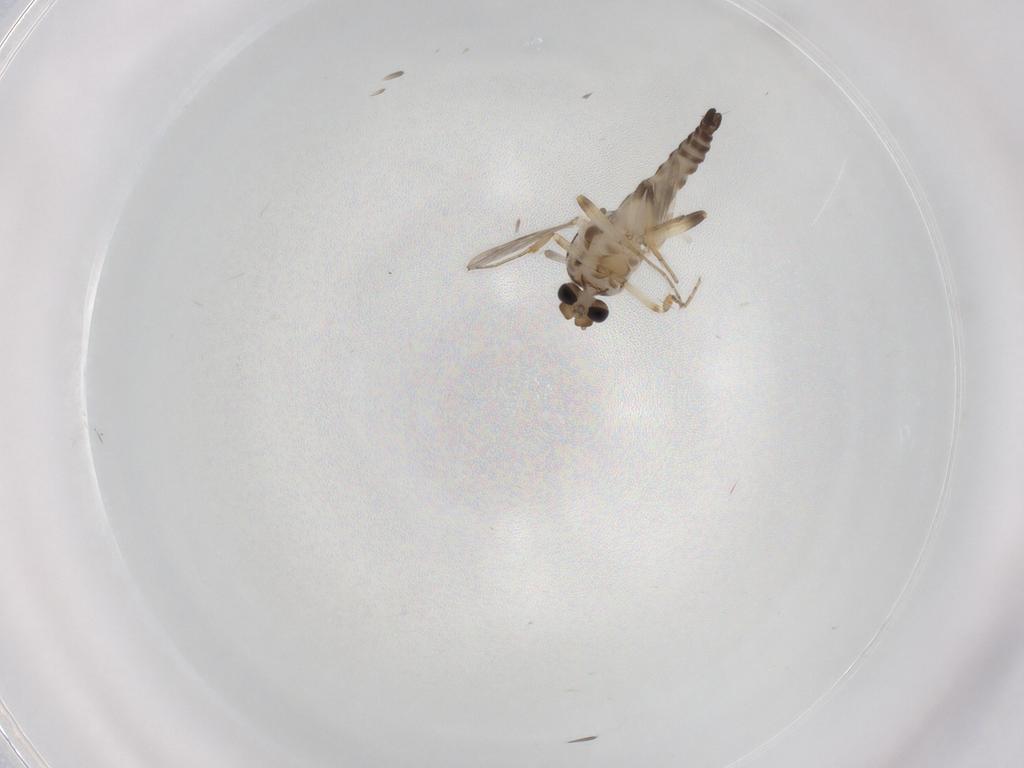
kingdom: Animalia
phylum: Arthropoda
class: Insecta
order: Diptera
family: Ceratopogonidae
